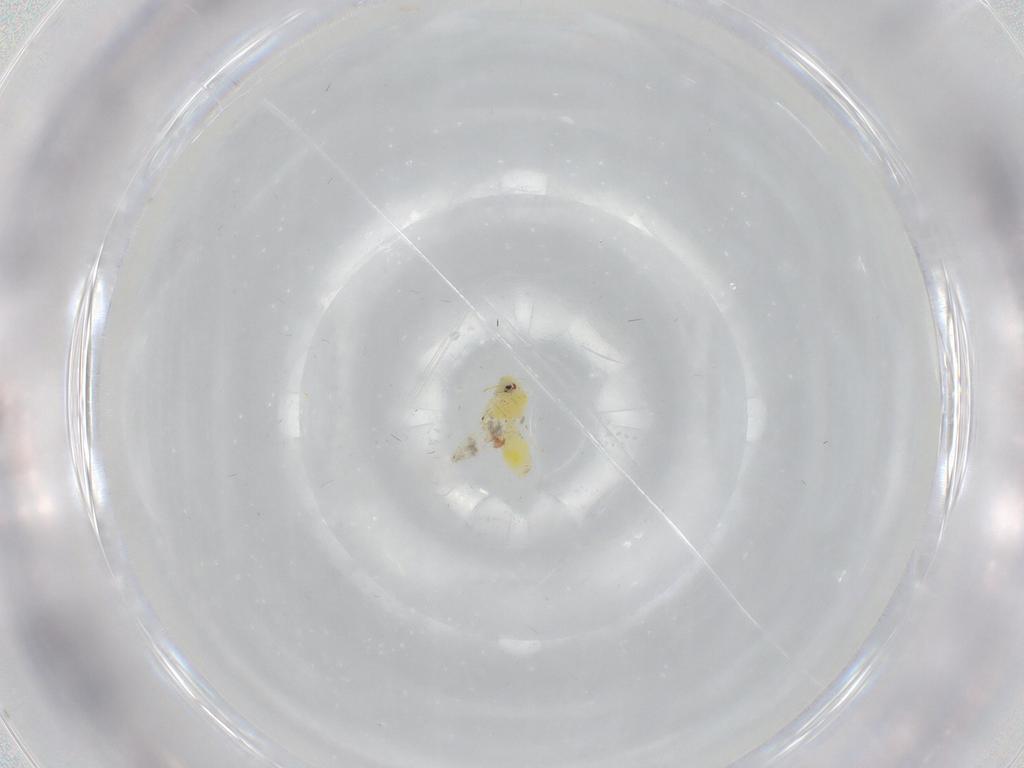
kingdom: Animalia
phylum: Arthropoda
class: Insecta
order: Hemiptera
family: Aleyrodidae
